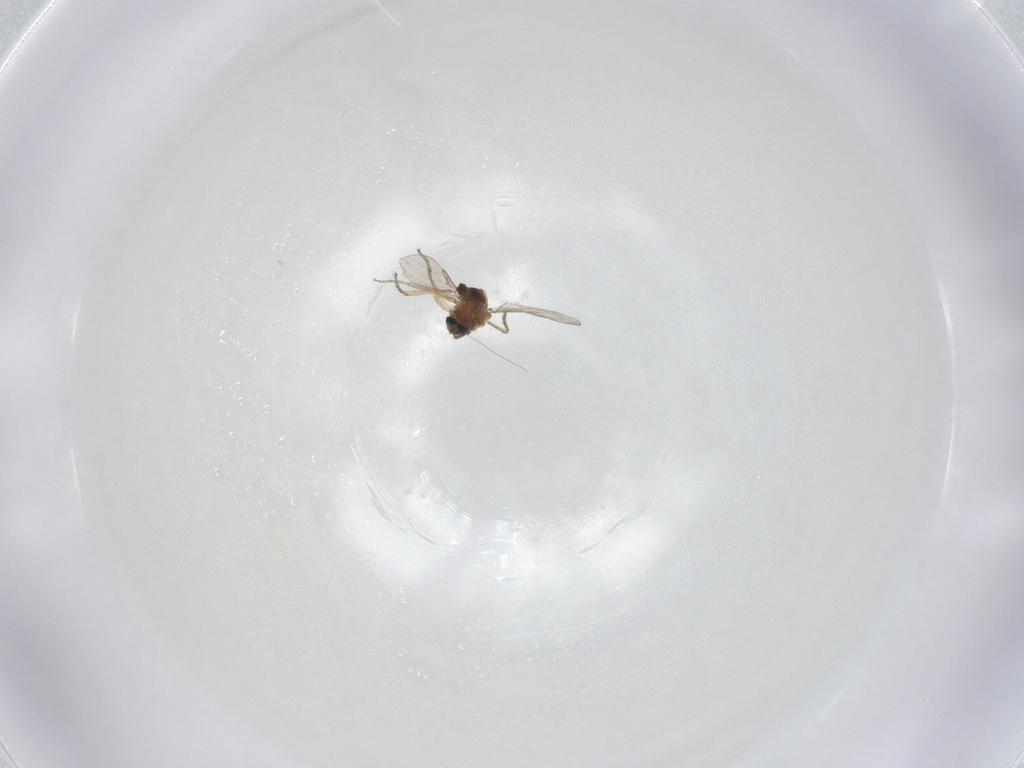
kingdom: Animalia
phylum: Arthropoda
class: Insecta
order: Diptera
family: Ceratopogonidae
